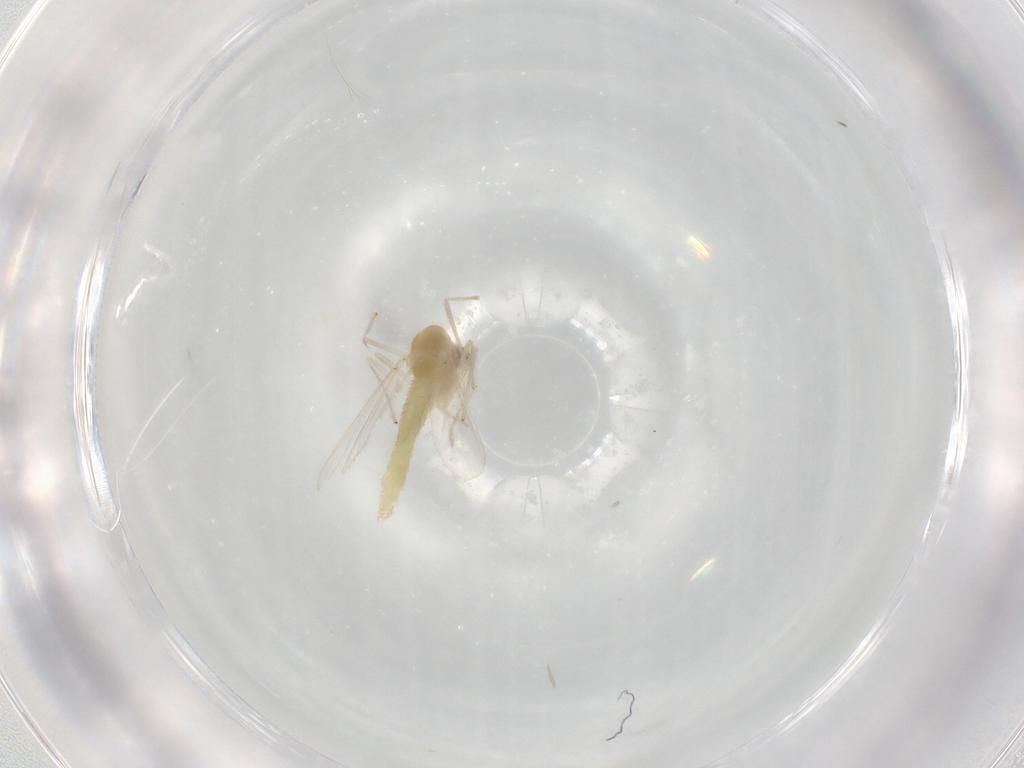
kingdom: Animalia
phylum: Arthropoda
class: Insecta
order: Diptera
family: Chironomidae
